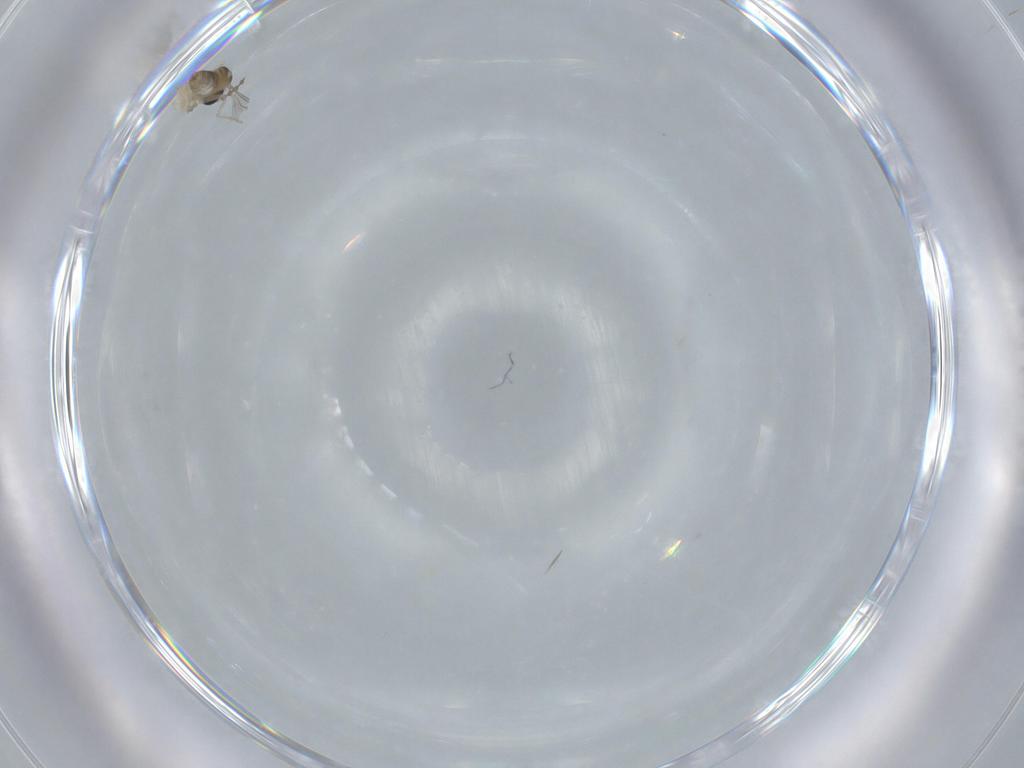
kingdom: Animalia
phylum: Arthropoda
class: Insecta
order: Diptera
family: Cecidomyiidae
